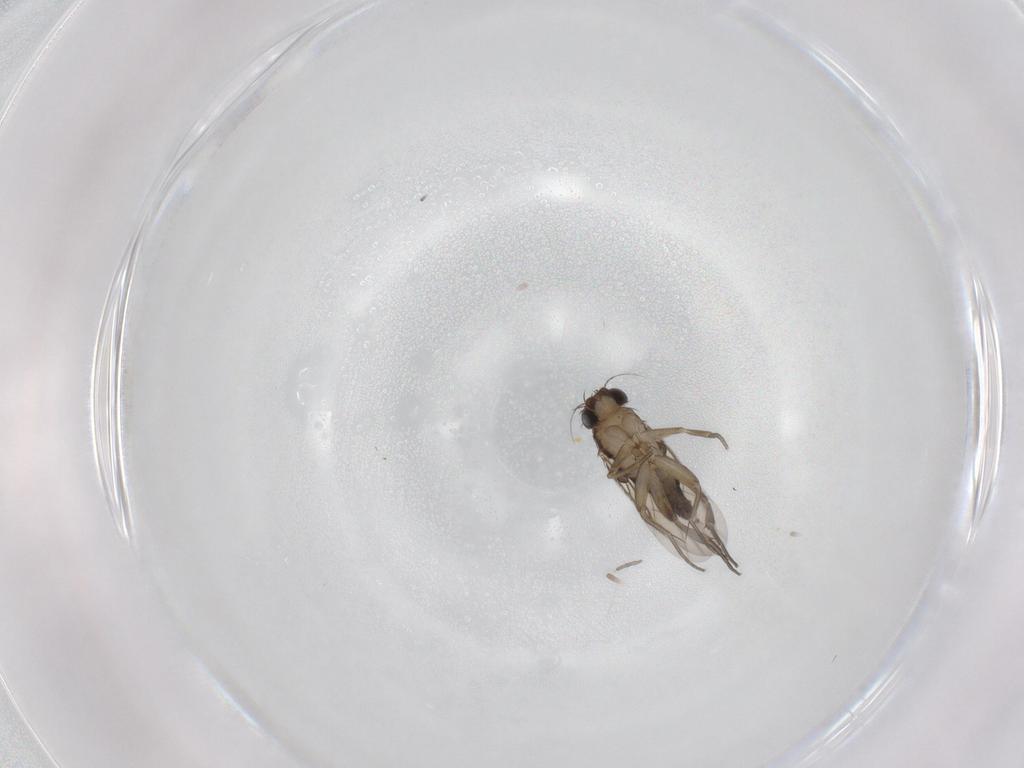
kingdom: Animalia
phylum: Arthropoda
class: Insecta
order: Diptera
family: Phoridae
